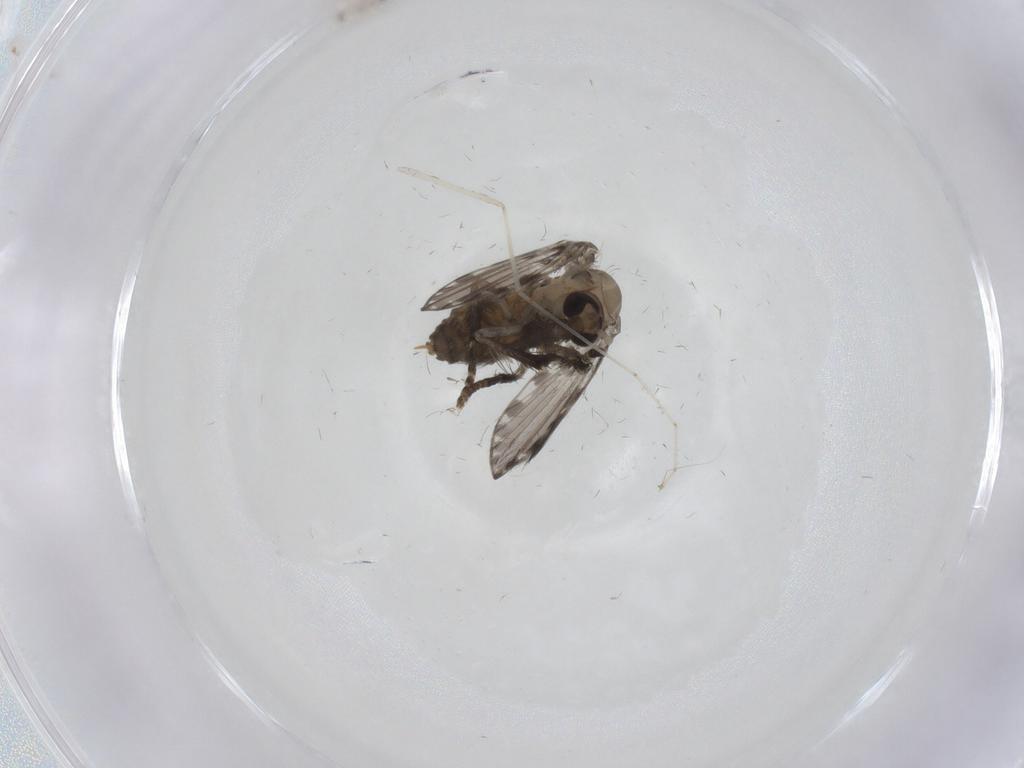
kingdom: Animalia
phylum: Arthropoda
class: Insecta
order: Diptera
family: Psychodidae
